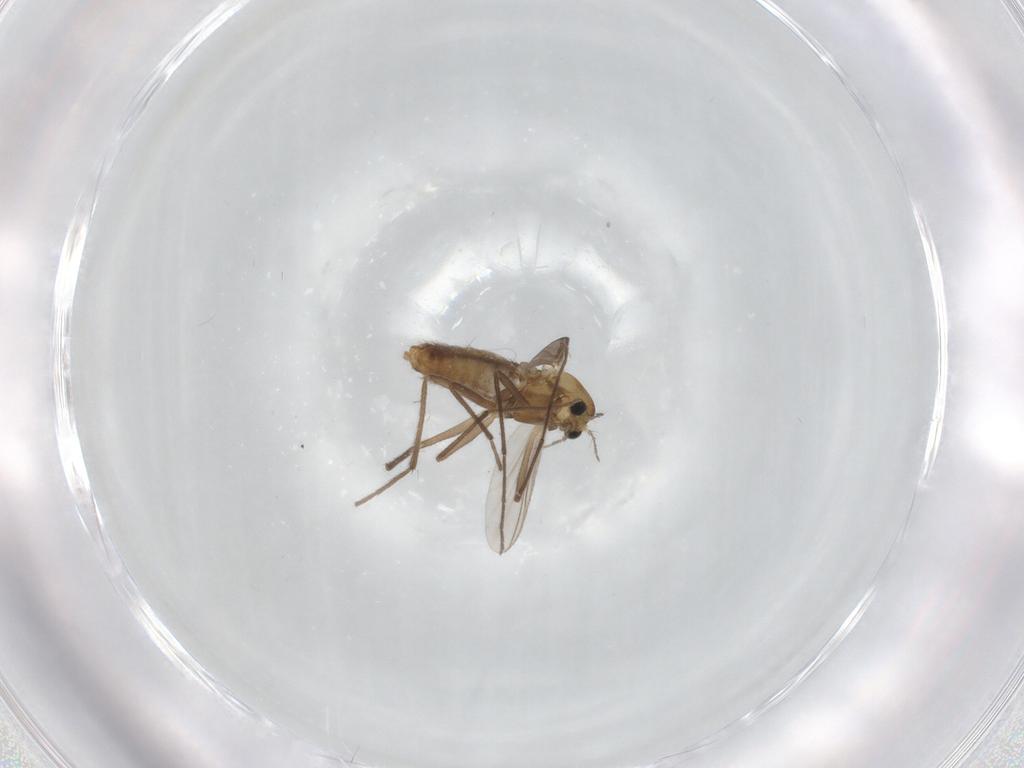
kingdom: Animalia
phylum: Arthropoda
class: Insecta
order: Diptera
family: Chironomidae
